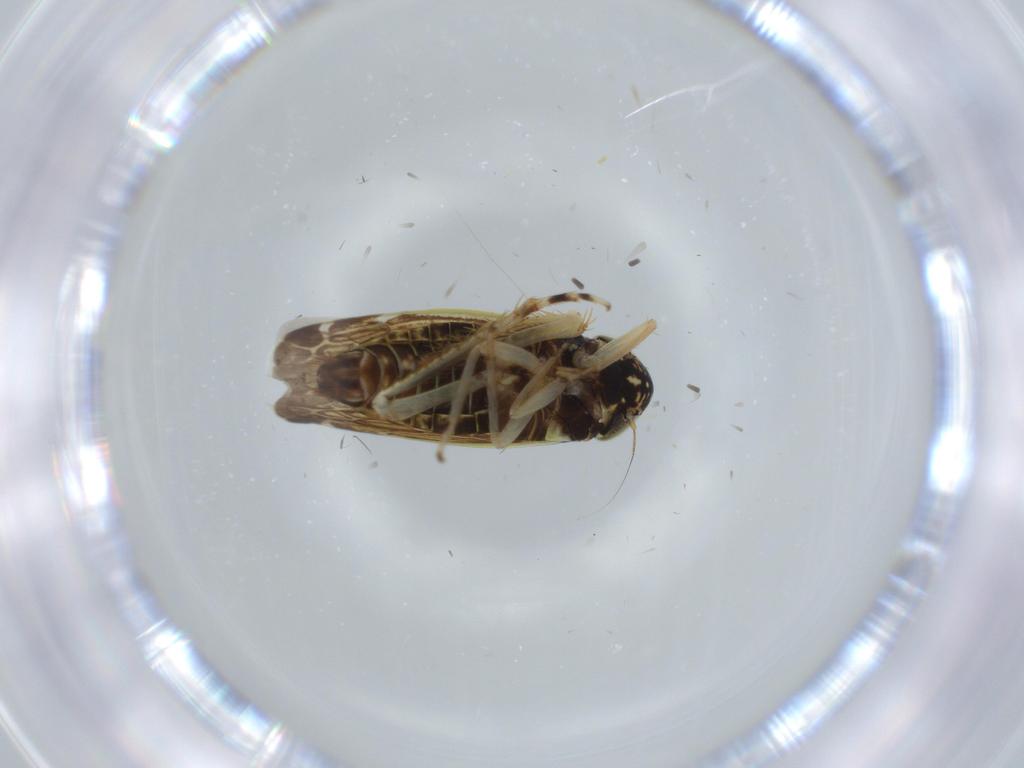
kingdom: Animalia
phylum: Arthropoda
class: Insecta
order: Hemiptera
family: Cicadellidae
